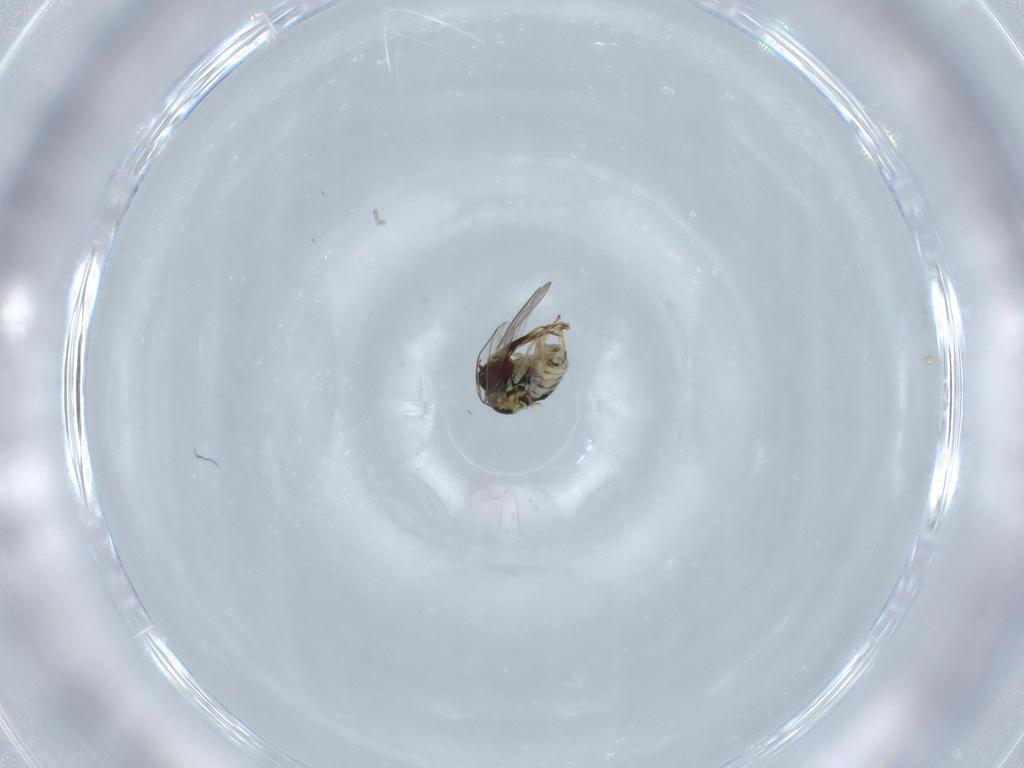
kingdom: Animalia
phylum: Arthropoda
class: Insecta
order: Diptera
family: Bombyliidae
